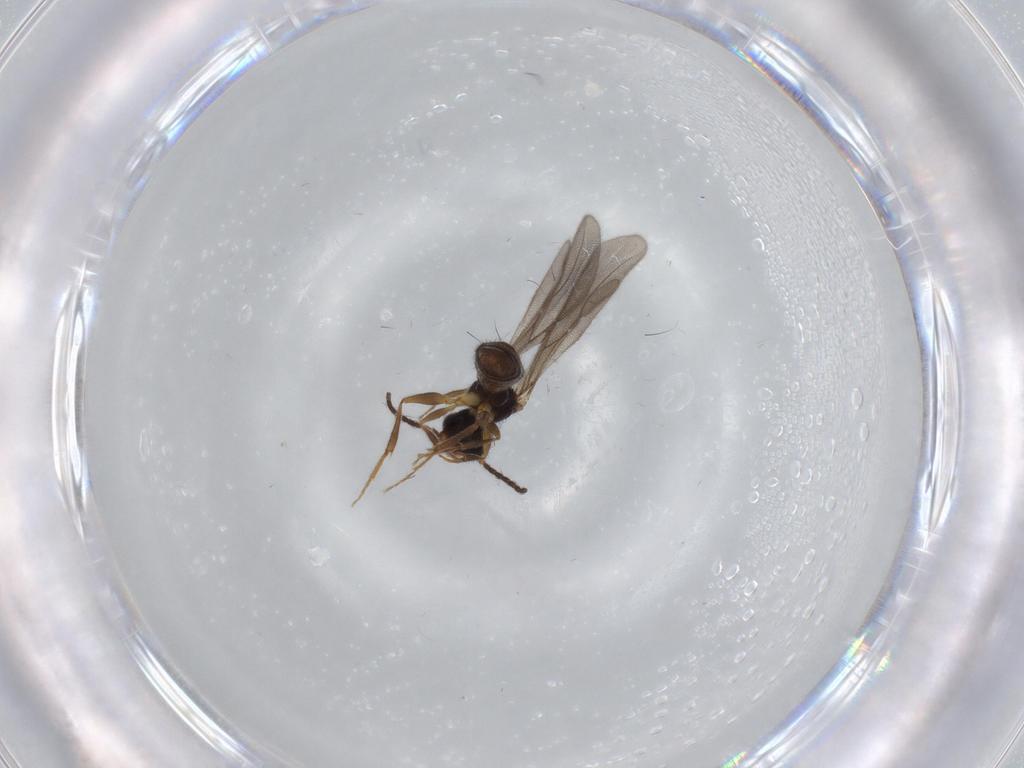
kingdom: Animalia
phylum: Arthropoda
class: Insecta
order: Hymenoptera
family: Bethylidae
